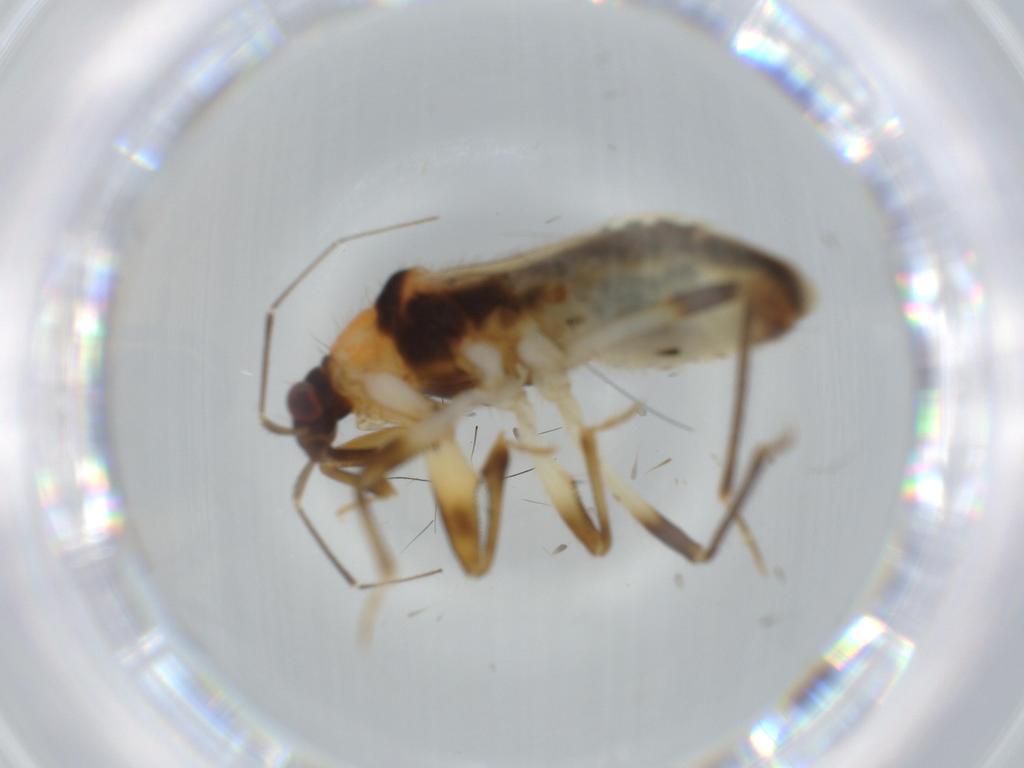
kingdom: Animalia
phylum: Arthropoda
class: Insecta
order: Hemiptera
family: Nabidae
